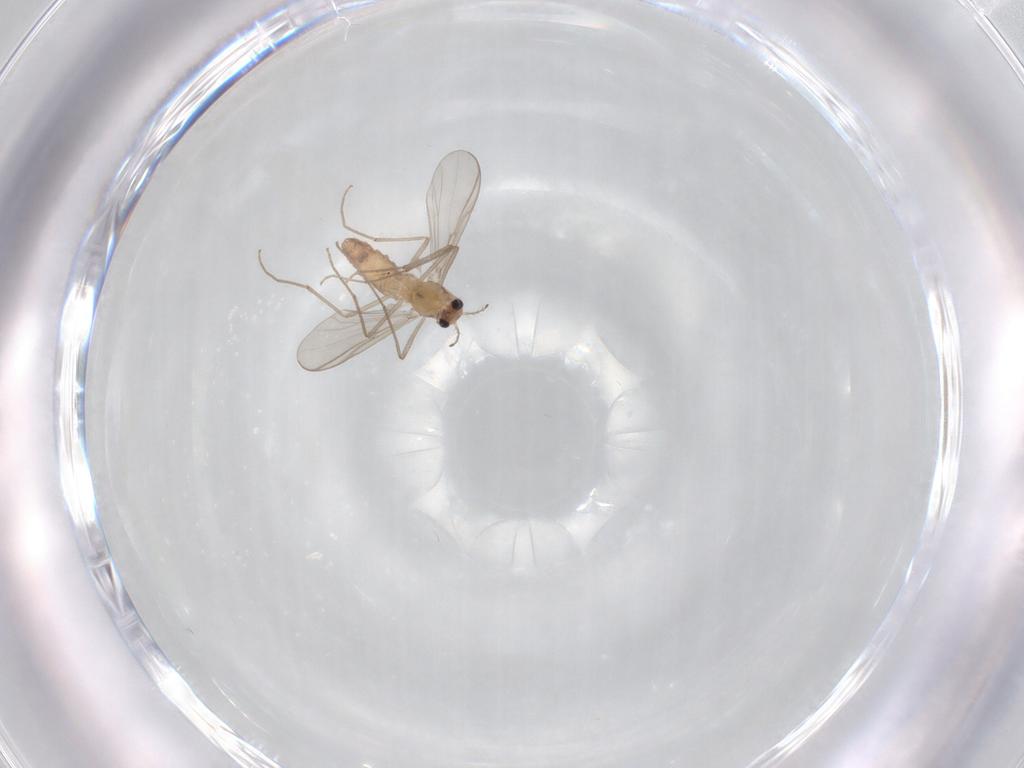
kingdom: Animalia
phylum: Arthropoda
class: Insecta
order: Diptera
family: Chironomidae
